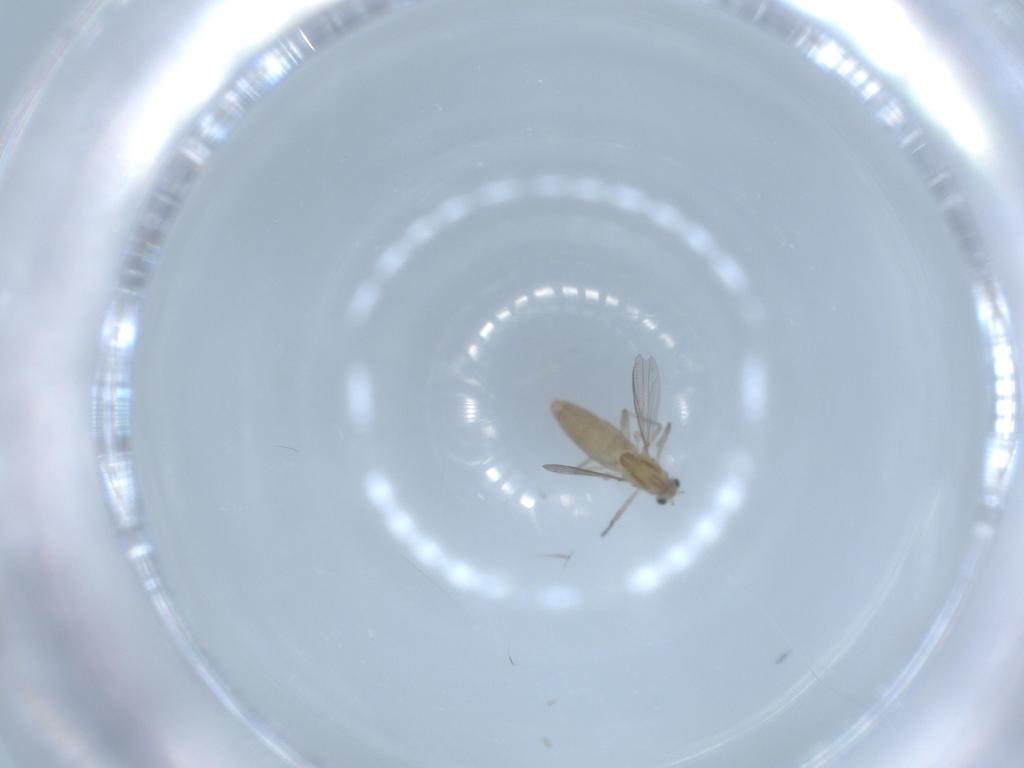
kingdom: Animalia
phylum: Arthropoda
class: Insecta
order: Diptera
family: Chironomidae
